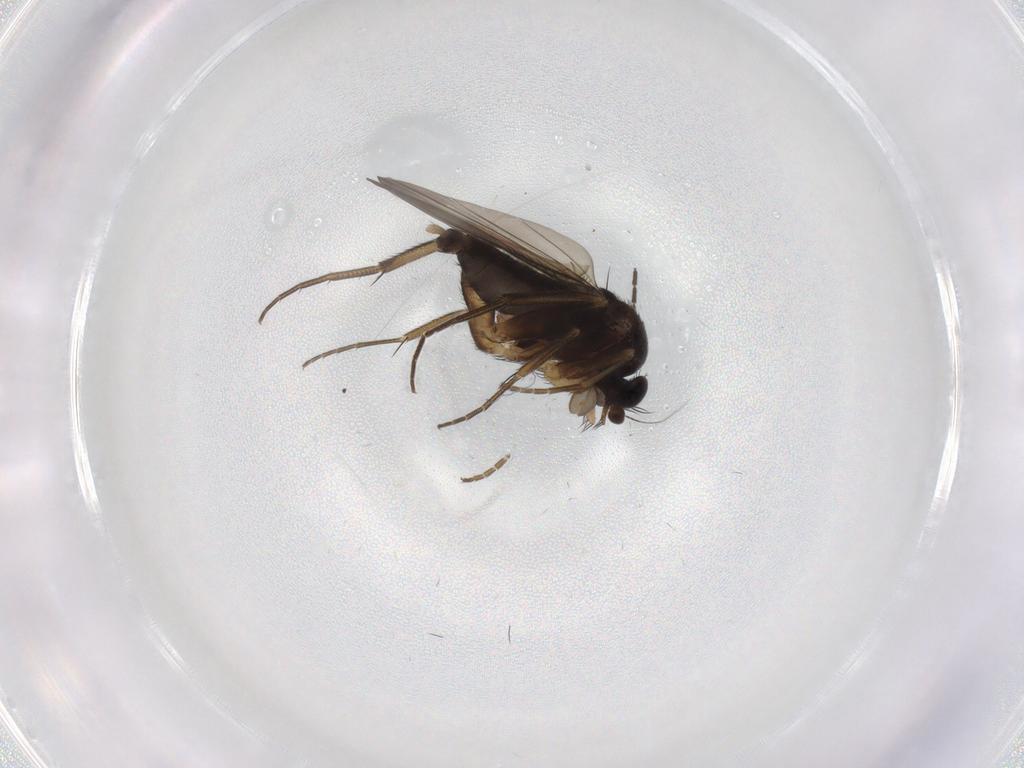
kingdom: Animalia
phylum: Arthropoda
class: Insecta
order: Diptera
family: Phoridae
